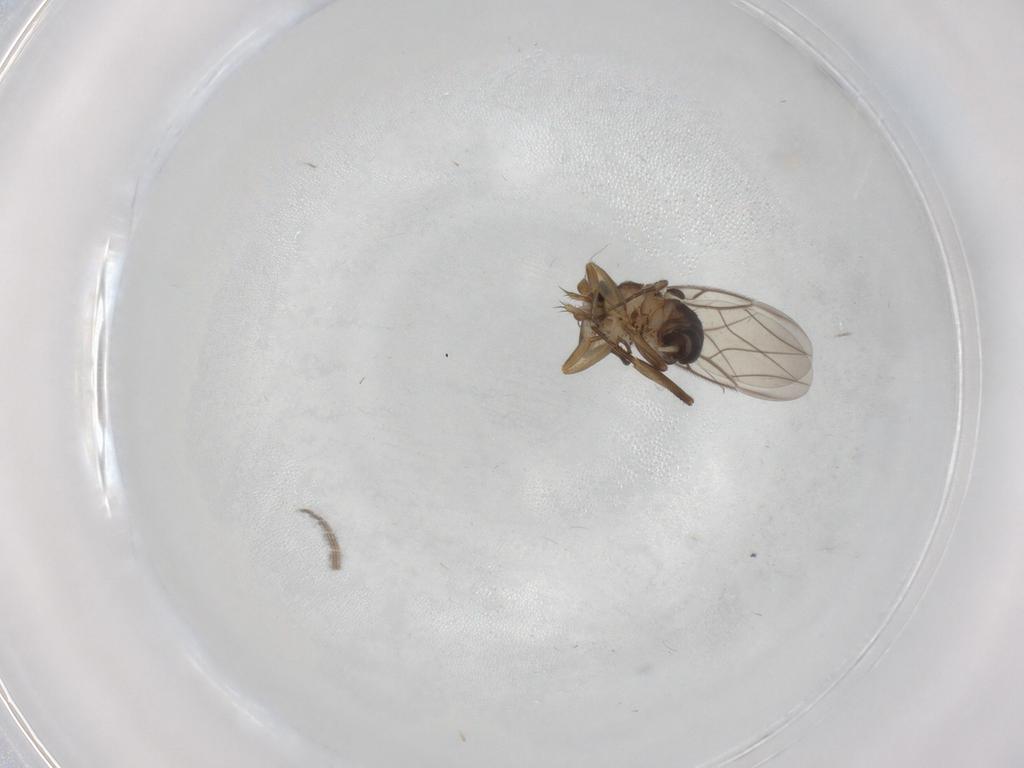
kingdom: Animalia
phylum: Arthropoda
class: Insecta
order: Diptera
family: Phoridae
